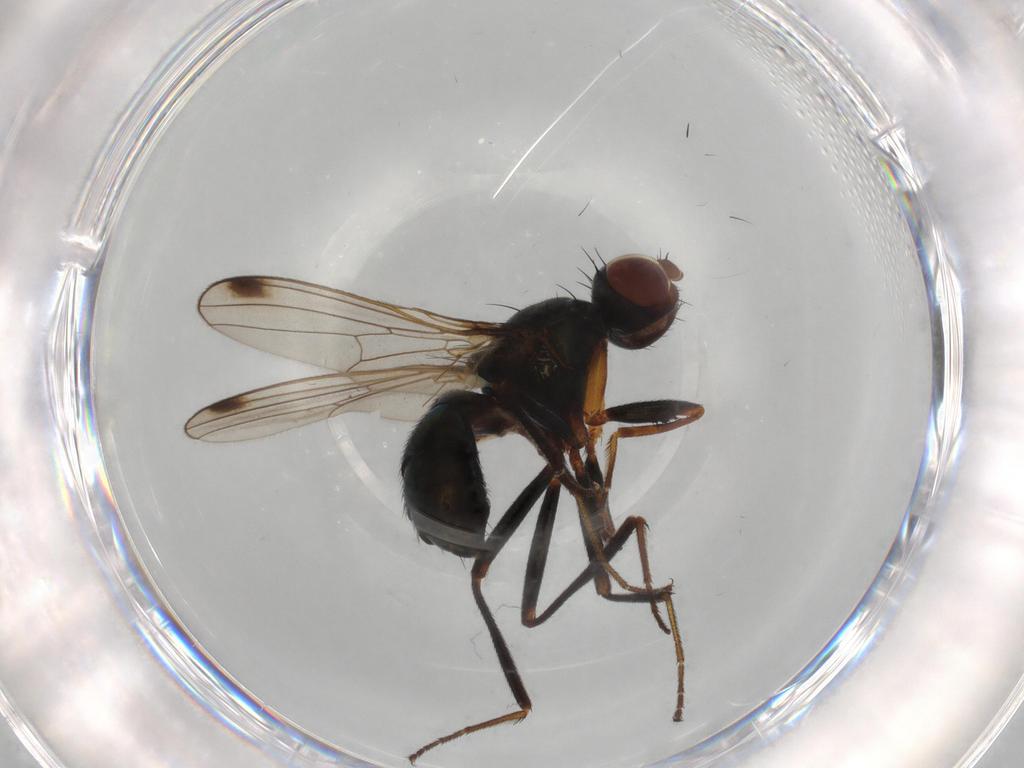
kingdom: Animalia
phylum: Arthropoda
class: Insecta
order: Diptera
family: Sepsidae
